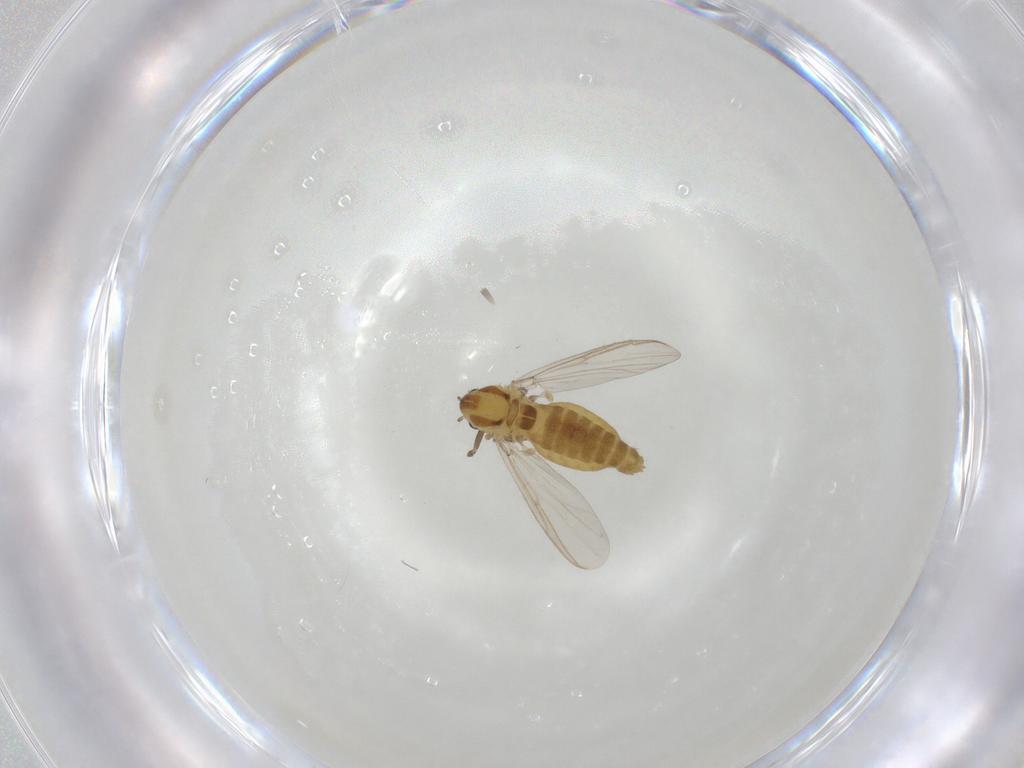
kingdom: Animalia
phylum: Arthropoda
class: Insecta
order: Diptera
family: Chironomidae
